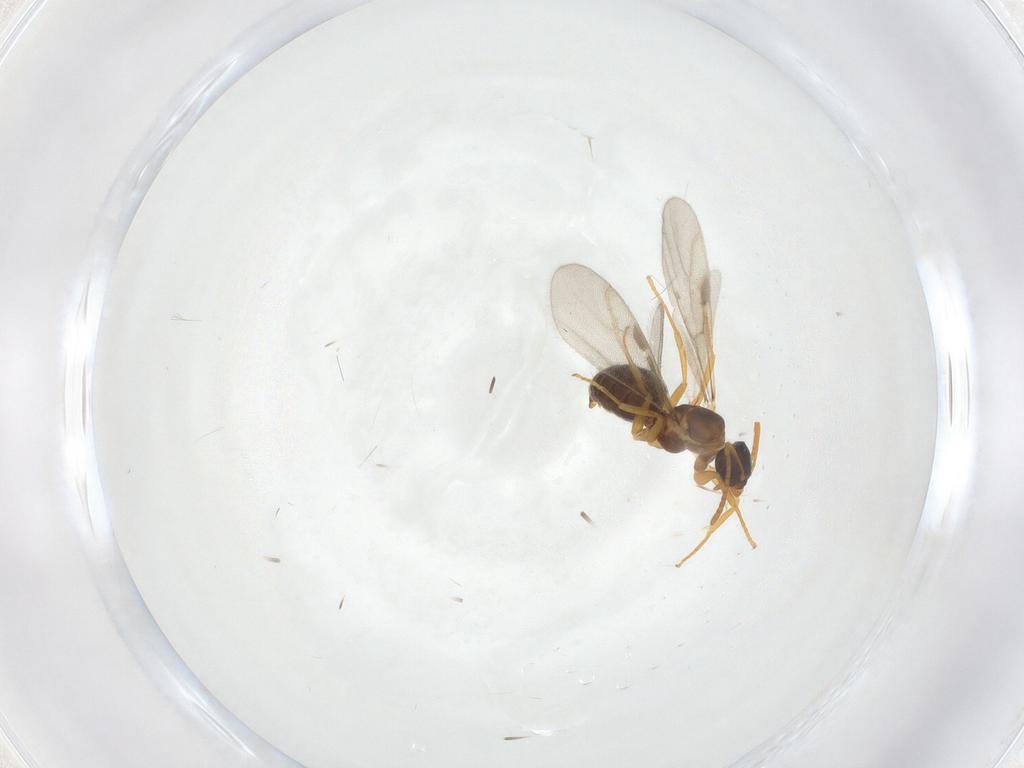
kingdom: Animalia
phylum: Arthropoda
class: Insecta
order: Hymenoptera
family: Formicidae
